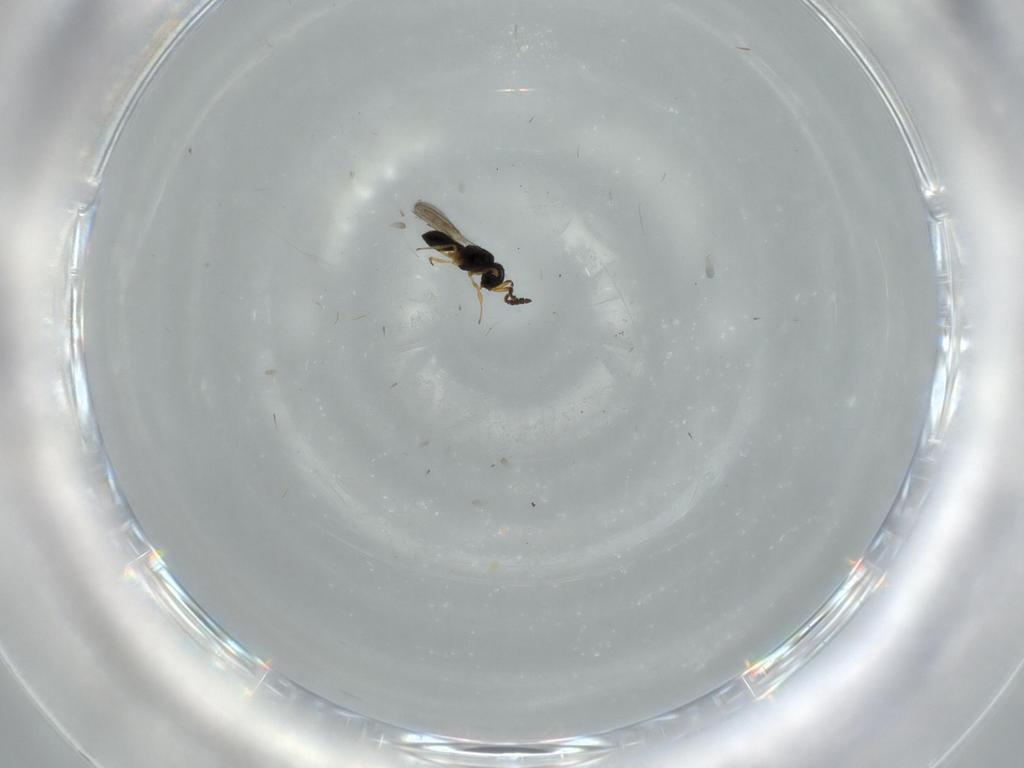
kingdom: Animalia
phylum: Arthropoda
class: Insecta
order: Hymenoptera
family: Scelionidae
